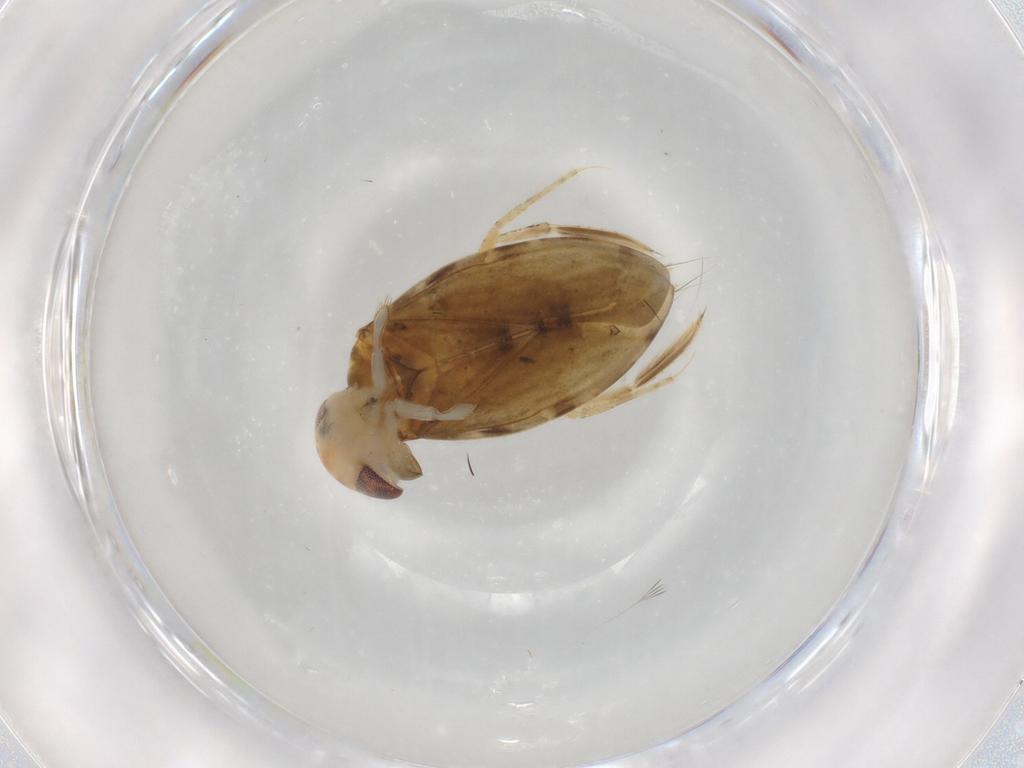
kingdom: Animalia
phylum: Arthropoda
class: Insecta
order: Hemiptera
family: Corixidae
